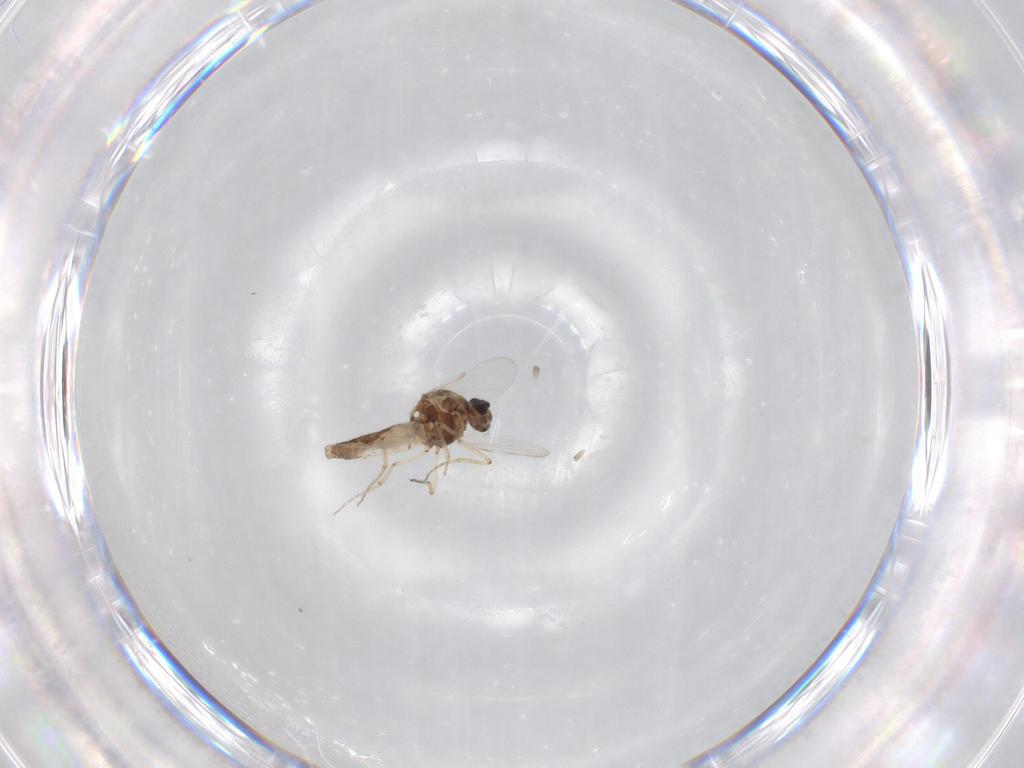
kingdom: Animalia
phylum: Arthropoda
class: Insecta
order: Diptera
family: Ceratopogonidae
